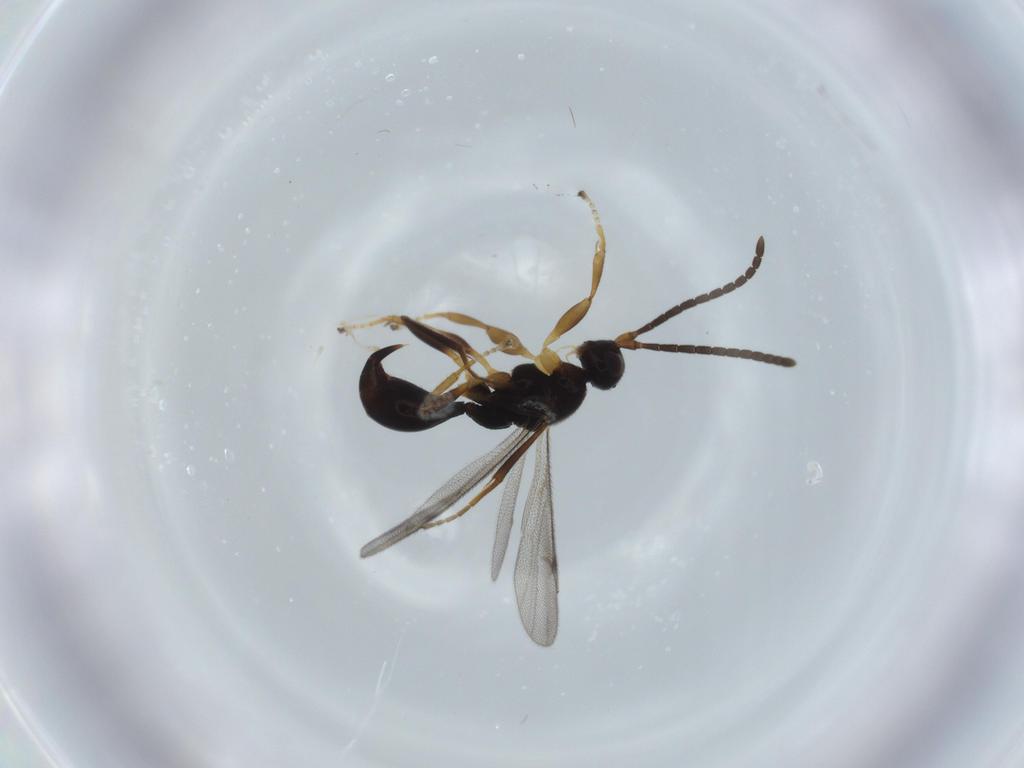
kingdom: Animalia
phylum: Arthropoda
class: Insecta
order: Hymenoptera
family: Proctotrupidae
